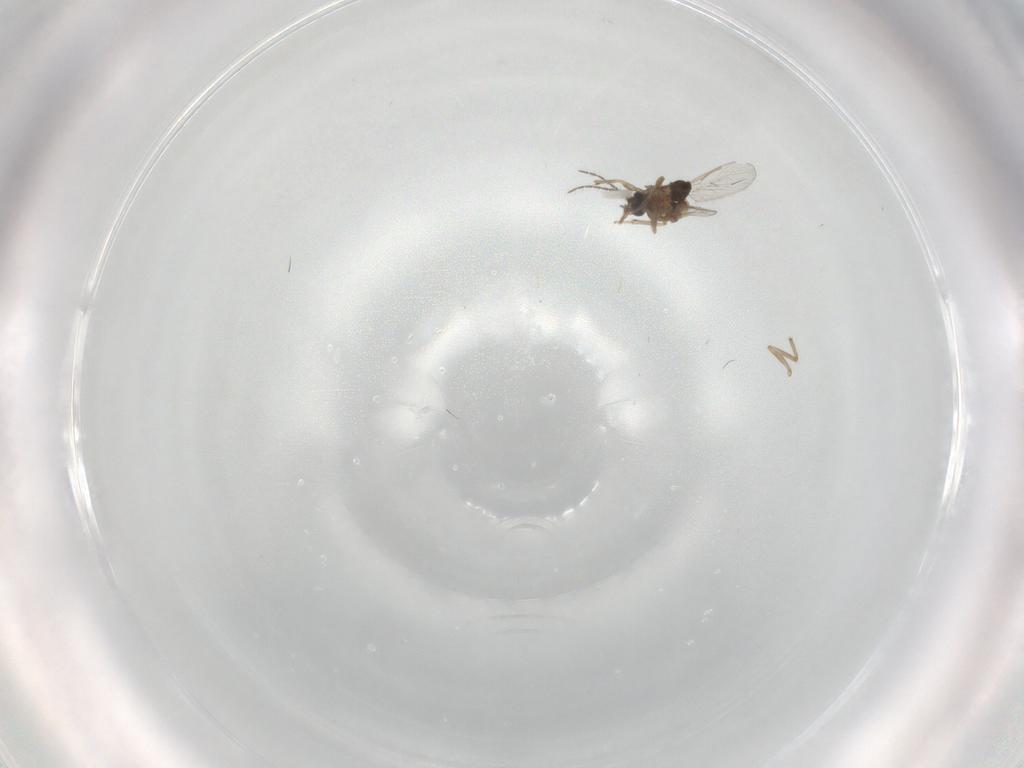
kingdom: Animalia
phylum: Arthropoda
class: Insecta
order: Diptera
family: Cecidomyiidae
